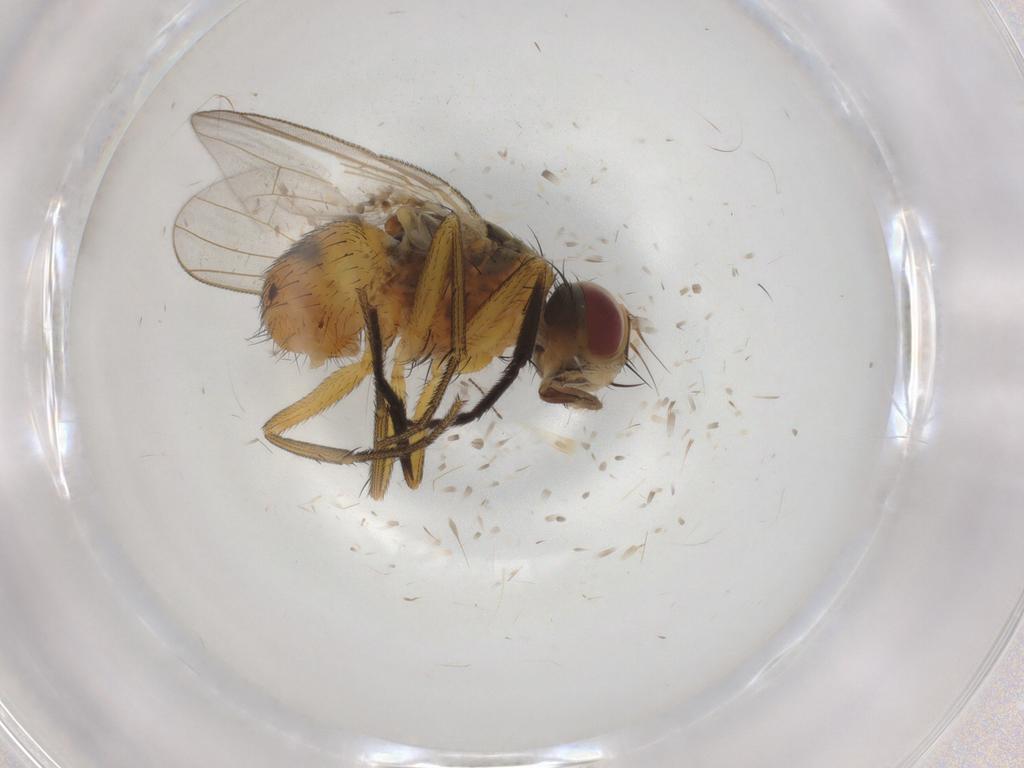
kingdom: Animalia
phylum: Arthropoda
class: Insecta
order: Diptera
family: Muscidae
